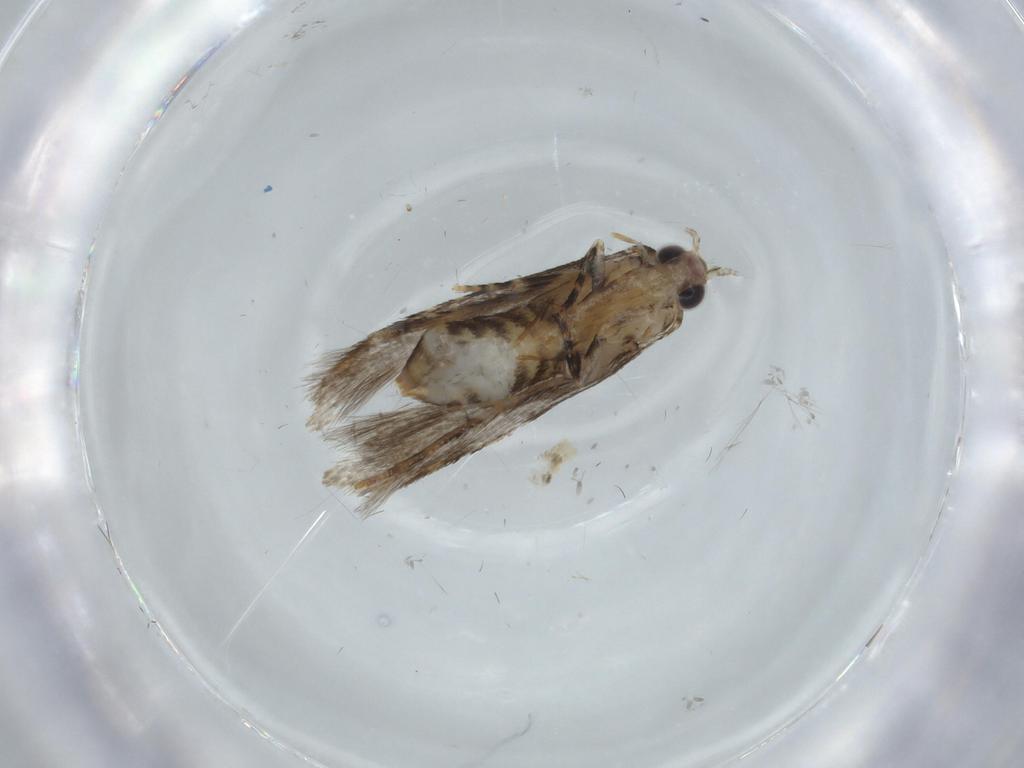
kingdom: Animalia
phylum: Arthropoda
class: Insecta
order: Lepidoptera
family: Tineidae
